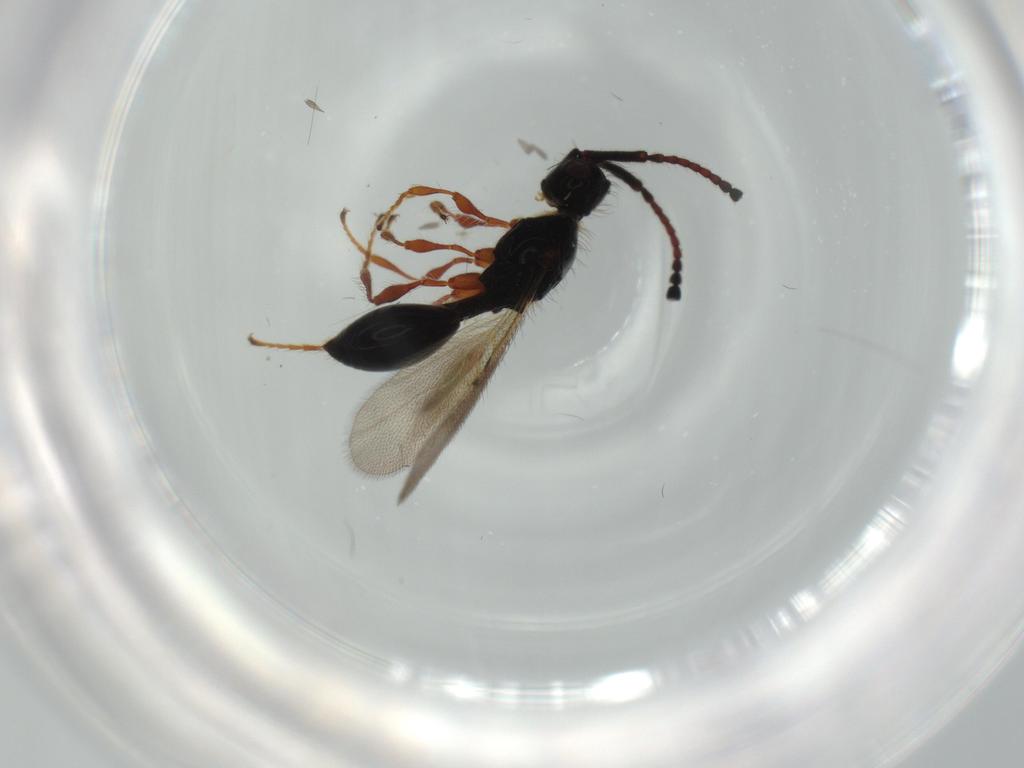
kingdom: Animalia
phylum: Arthropoda
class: Insecta
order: Hymenoptera
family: Diapriidae
